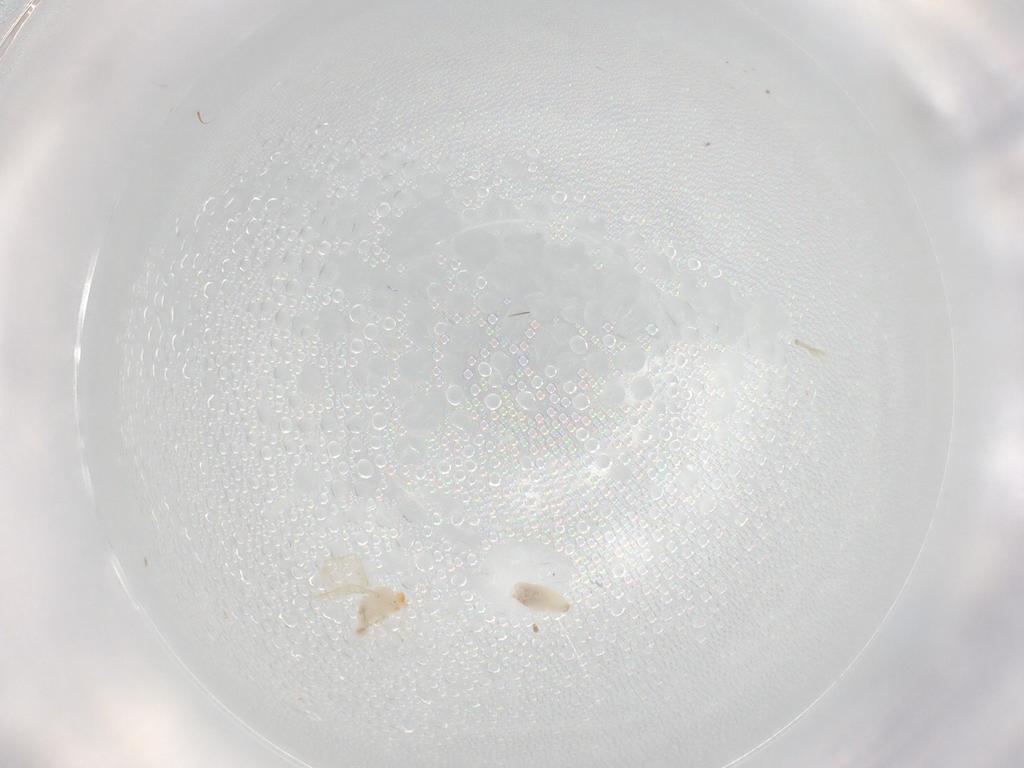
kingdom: Animalia
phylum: Arthropoda
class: Insecta
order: Diptera
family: Cecidomyiidae
